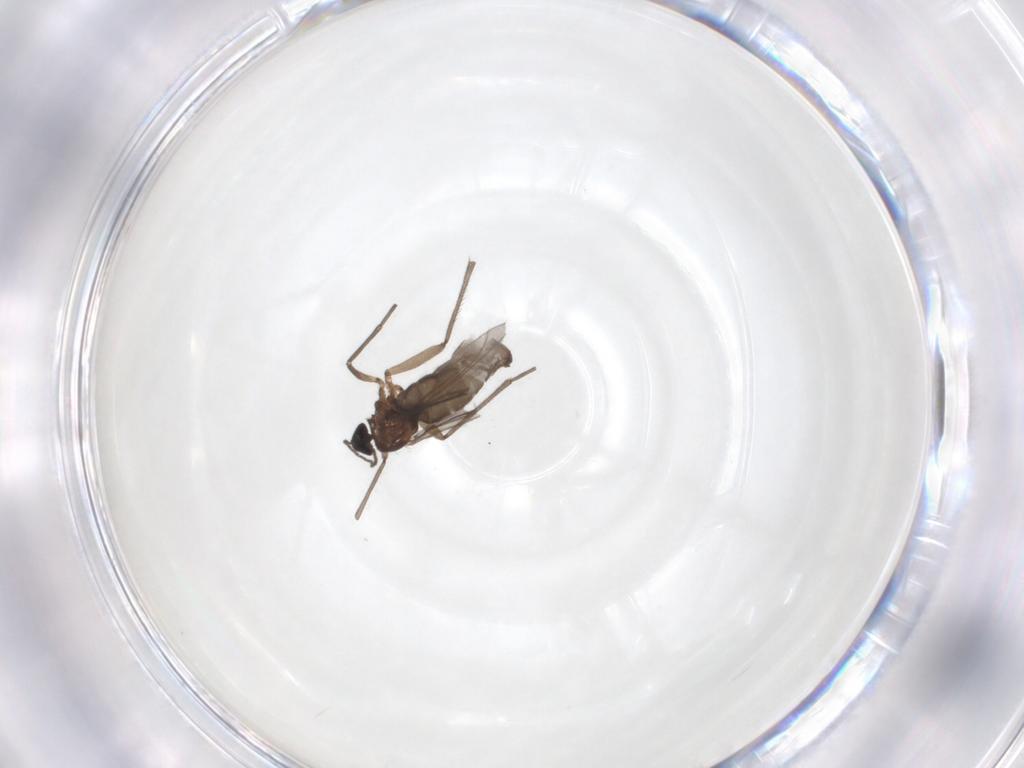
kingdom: Animalia
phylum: Arthropoda
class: Insecta
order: Diptera
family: Sciaridae
